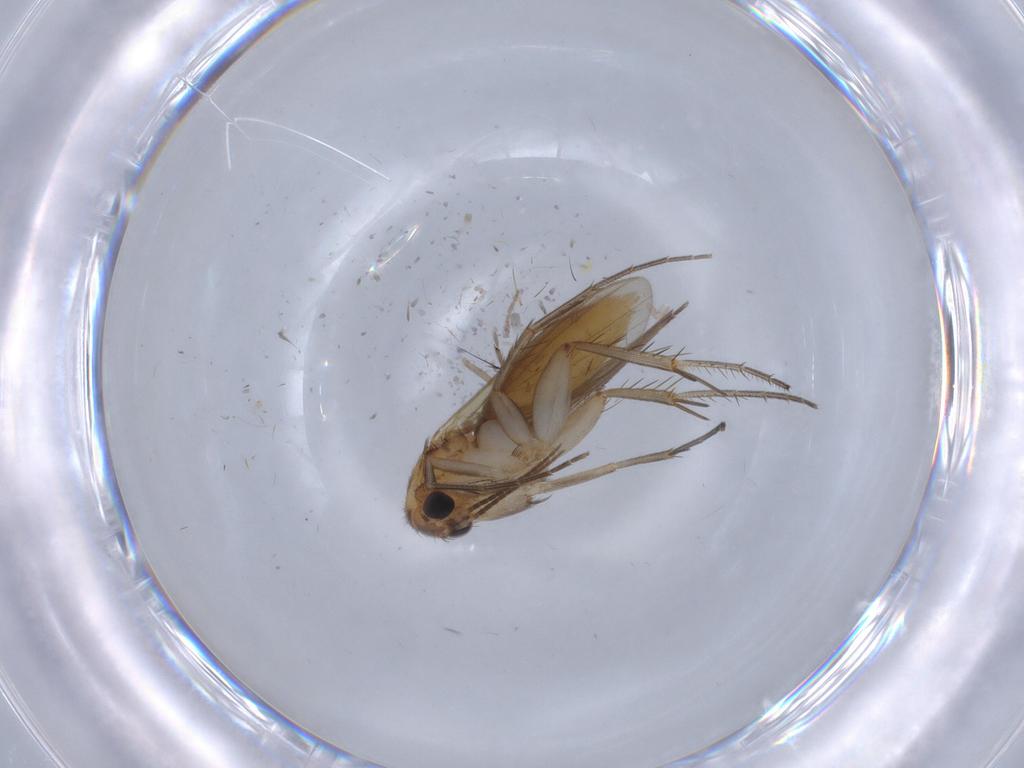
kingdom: Animalia
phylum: Arthropoda
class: Insecta
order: Diptera
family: Mycetophilidae
